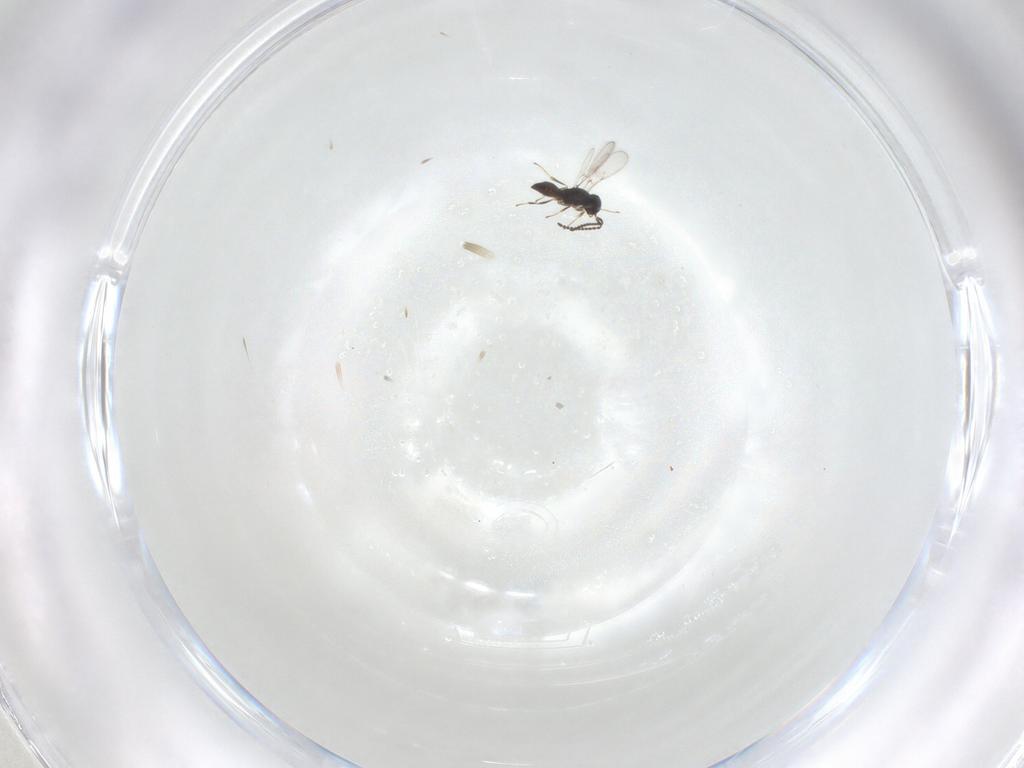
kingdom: Animalia
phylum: Arthropoda
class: Insecta
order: Hymenoptera
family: Scelionidae
